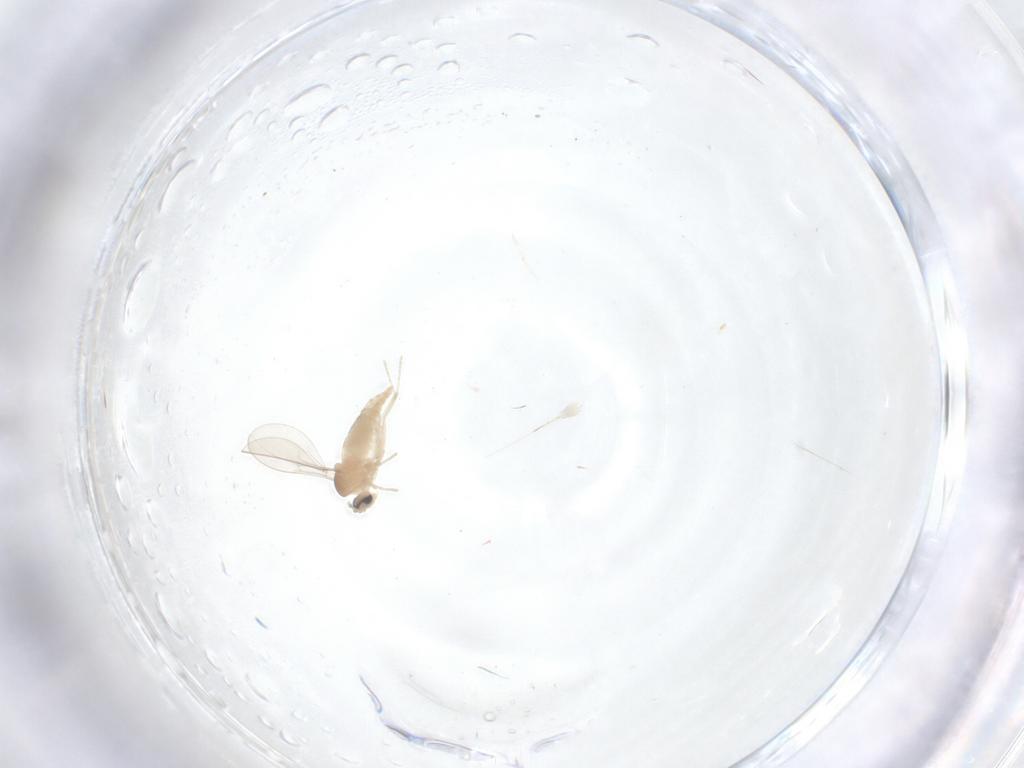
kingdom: Animalia
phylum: Arthropoda
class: Insecta
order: Diptera
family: Cecidomyiidae
